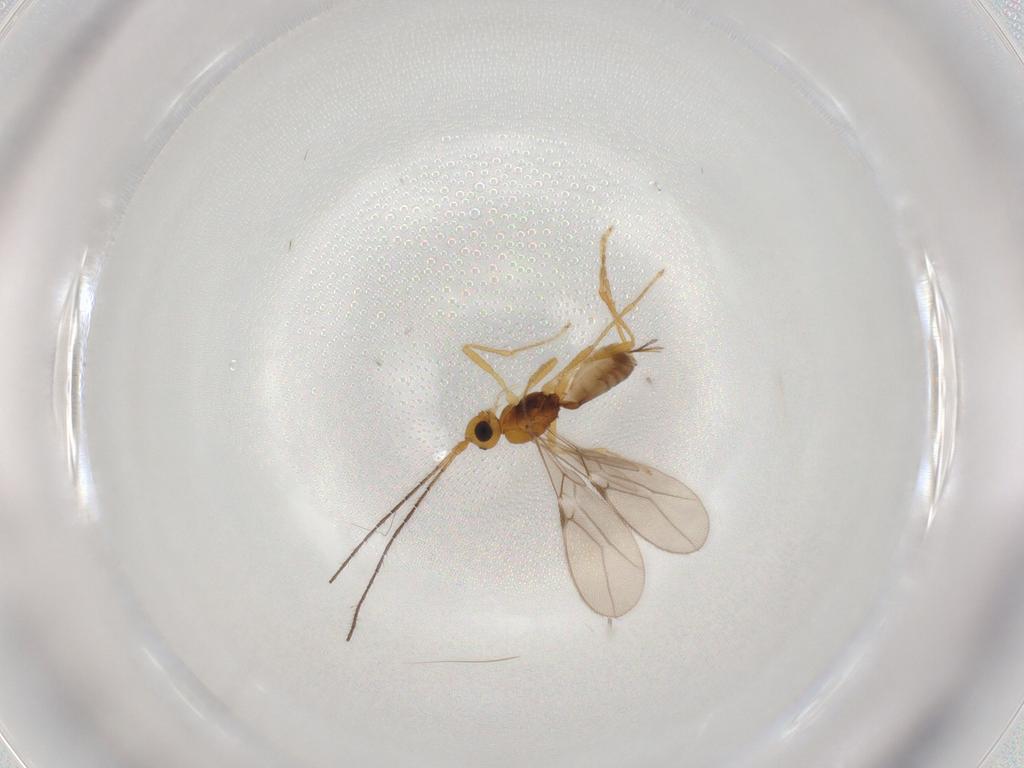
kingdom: Animalia
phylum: Arthropoda
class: Insecta
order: Hymenoptera
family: Braconidae
